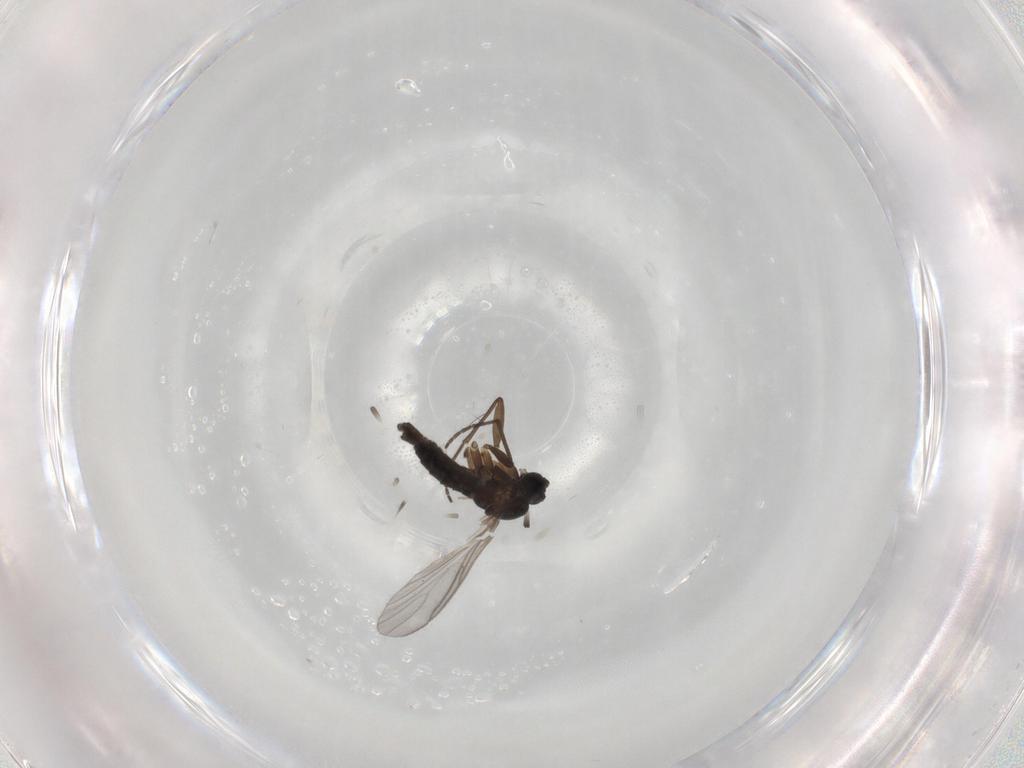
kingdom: Animalia
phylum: Arthropoda
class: Insecta
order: Diptera
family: Sciaridae
